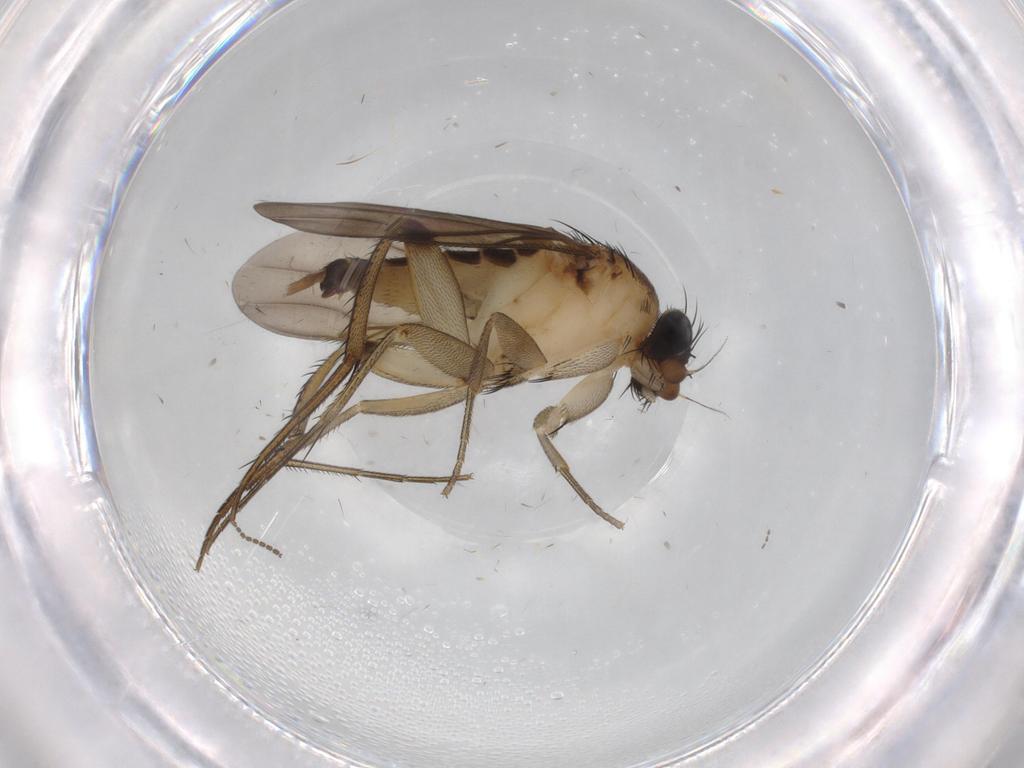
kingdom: Animalia
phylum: Arthropoda
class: Insecta
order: Diptera
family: Phoridae
